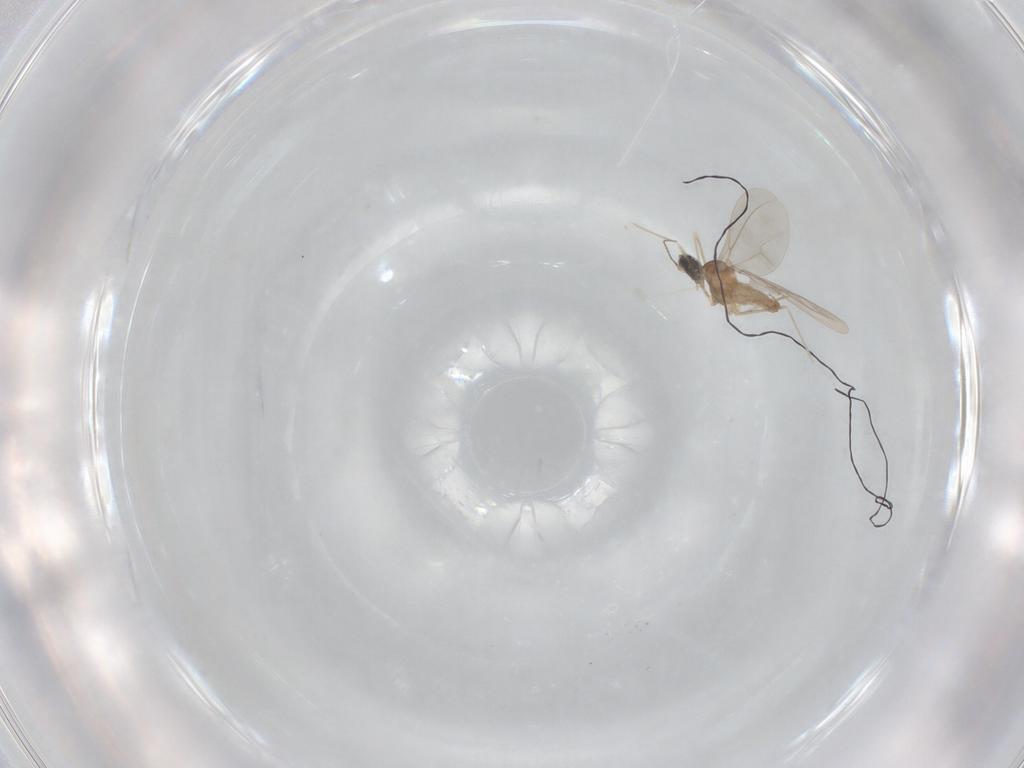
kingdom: Animalia
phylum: Arthropoda
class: Insecta
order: Diptera
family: Cecidomyiidae
